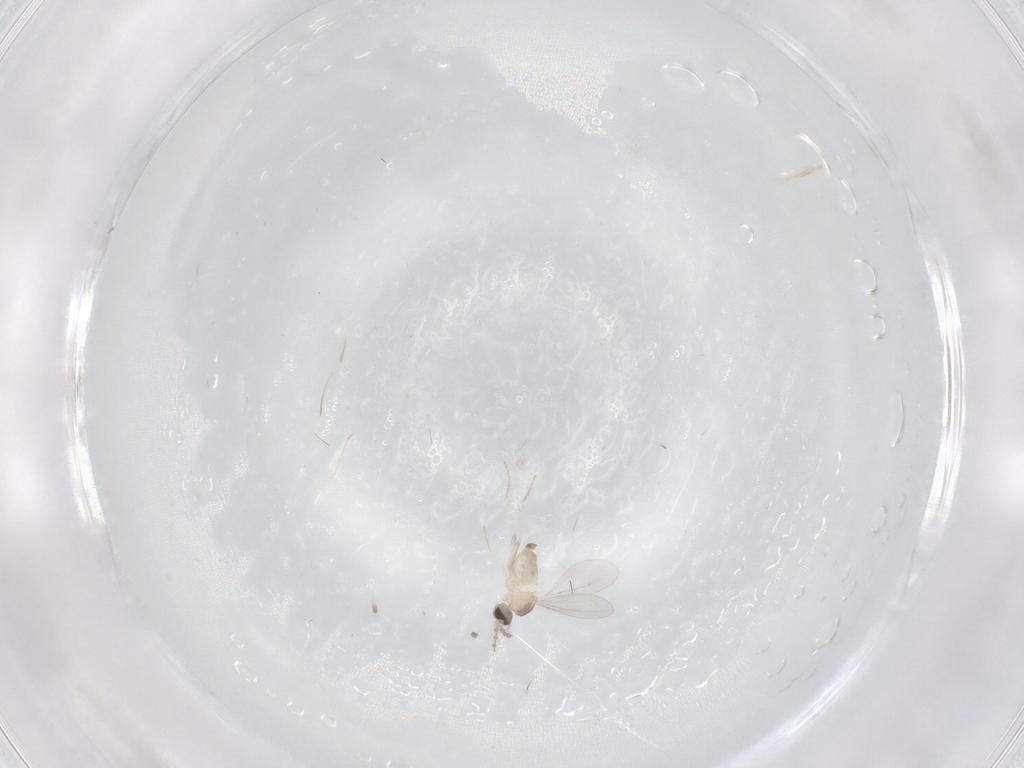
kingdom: Animalia
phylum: Arthropoda
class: Insecta
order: Diptera
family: Cecidomyiidae
